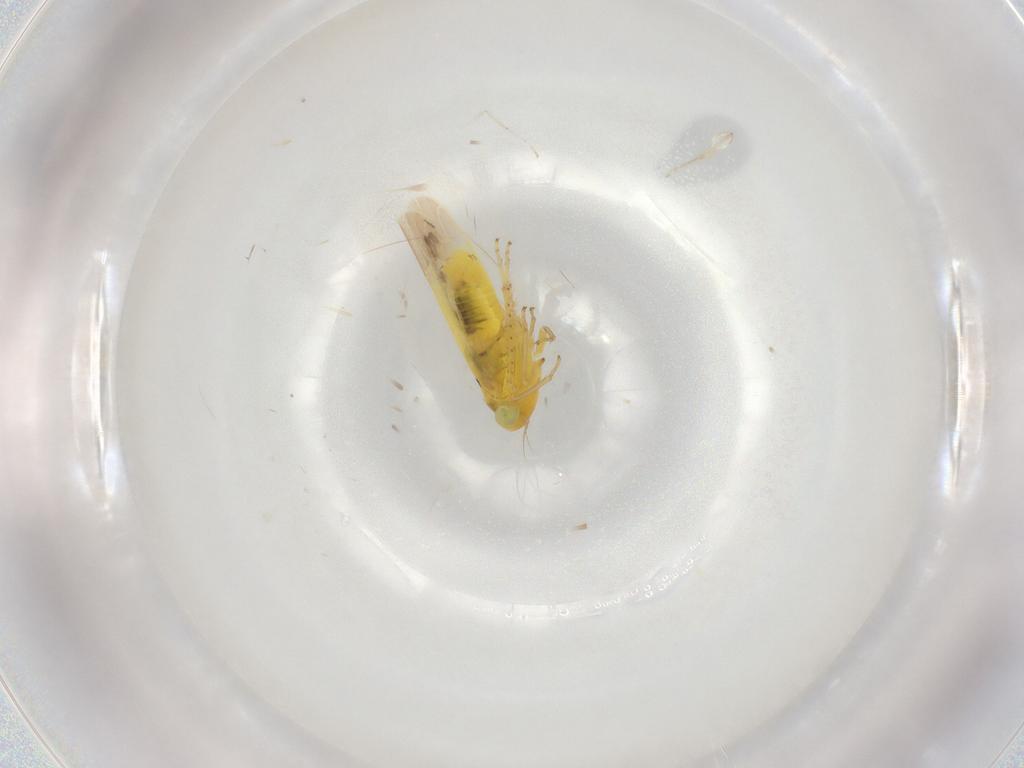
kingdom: Animalia
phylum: Arthropoda
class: Insecta
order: Hemiptera
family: Cicadellidae
